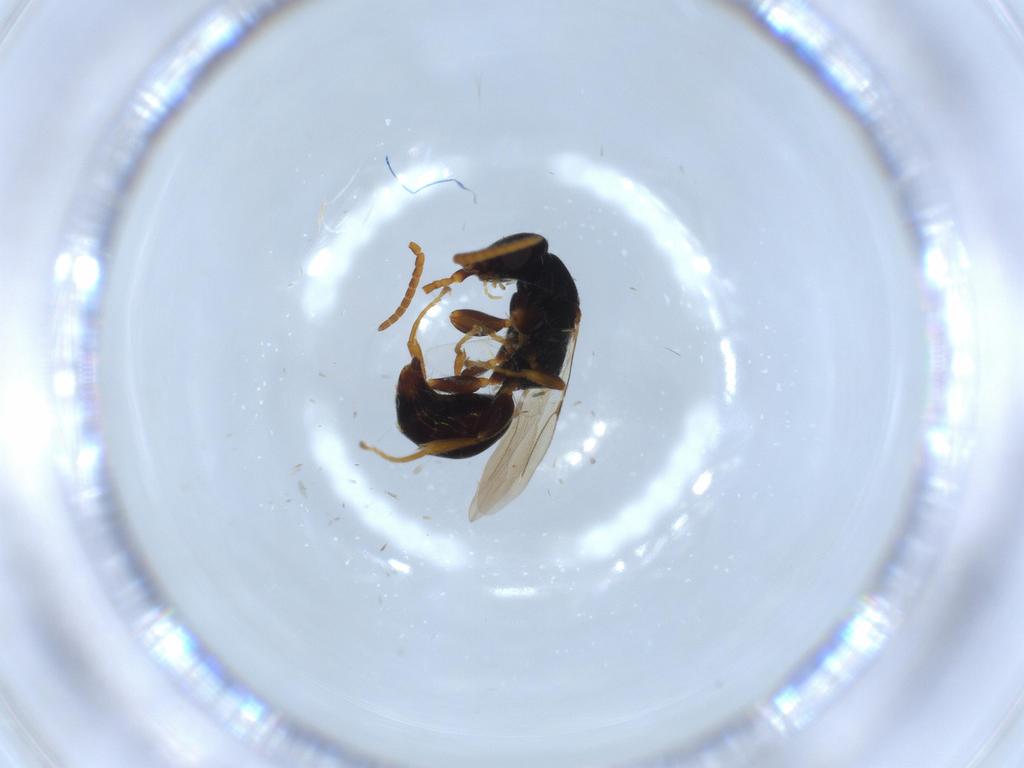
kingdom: Animalia
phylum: Arthropoda
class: Insecta
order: Hymenoptera
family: Bethylidae
